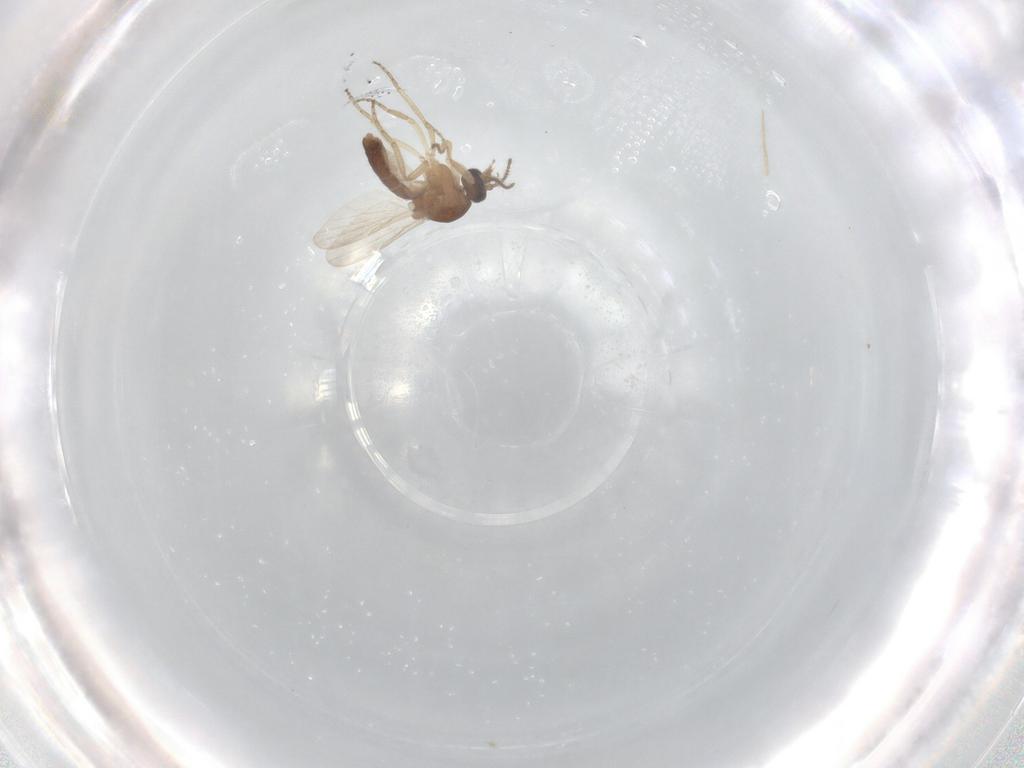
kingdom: Animalia
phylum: Arthropoda
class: Insecta
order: Diptera
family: Ceratopogonidae
